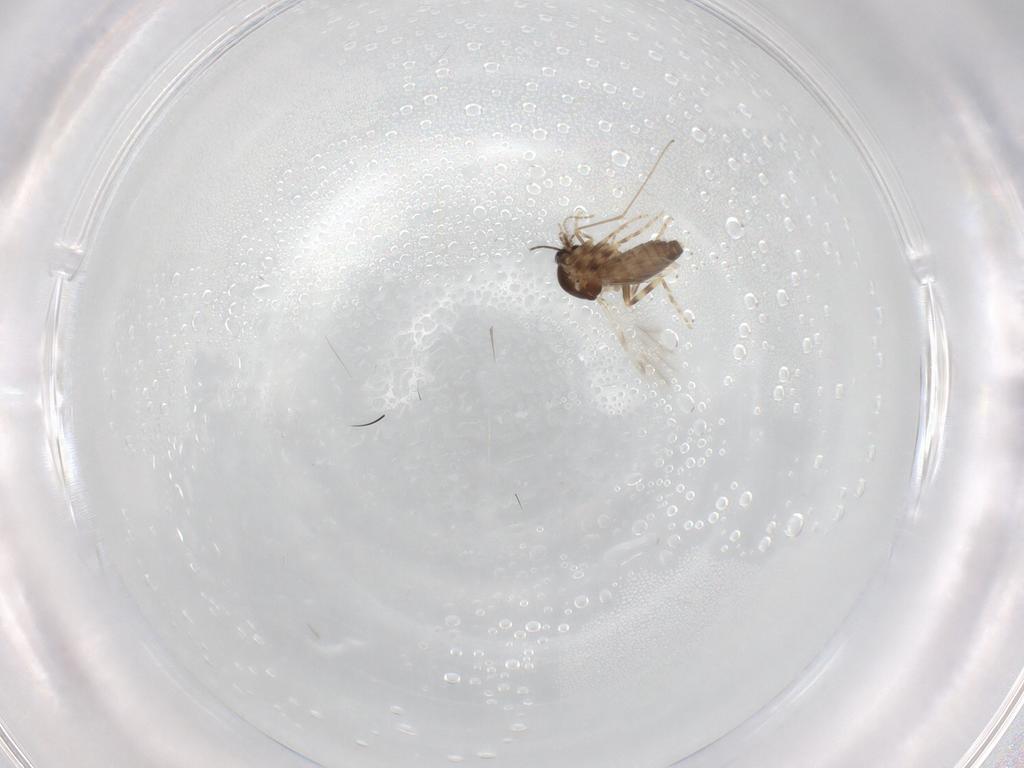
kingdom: Animalia
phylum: Arthropoda
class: Insecta
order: Diptera
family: Ceratopogonidae
